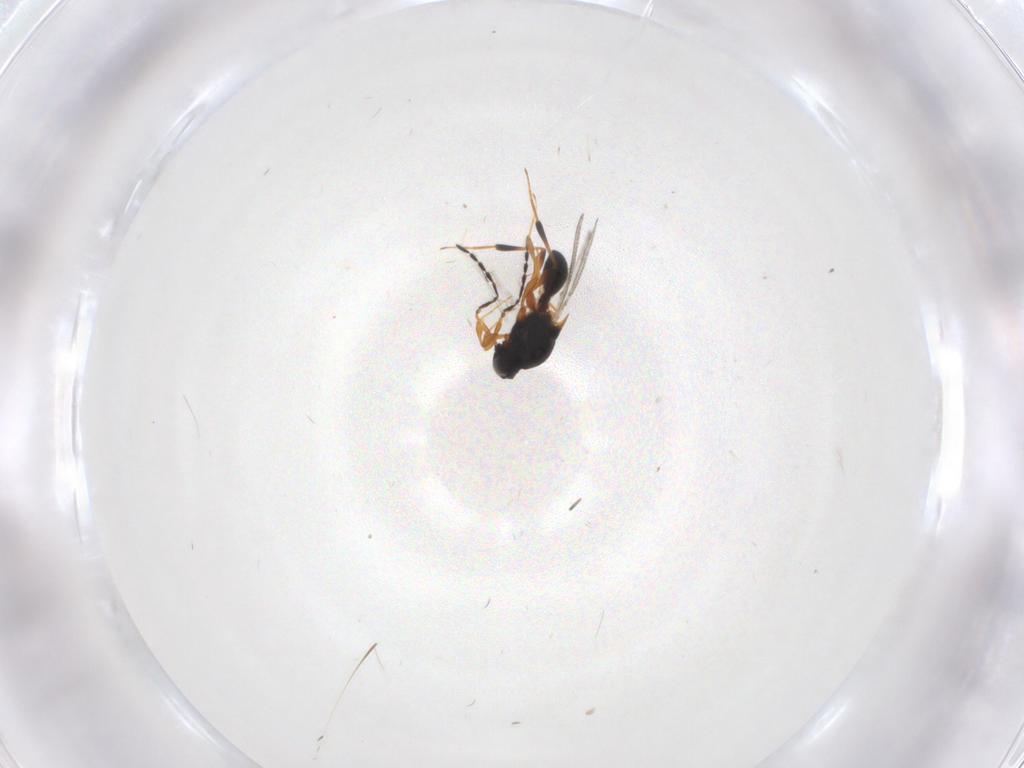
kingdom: Animalia
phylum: Arthropoda
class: Insecta
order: Hymenoptera
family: Platygastridae
